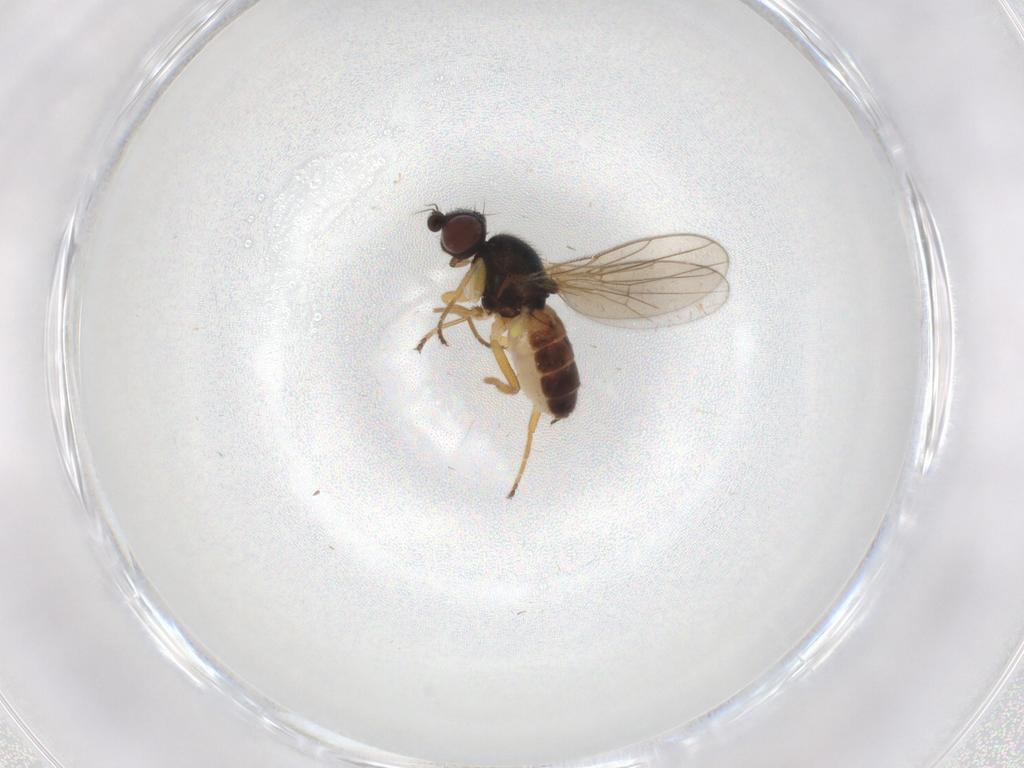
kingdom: Animalia
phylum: Arthropoda
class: Insecta
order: Diptera
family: Chloropidae
